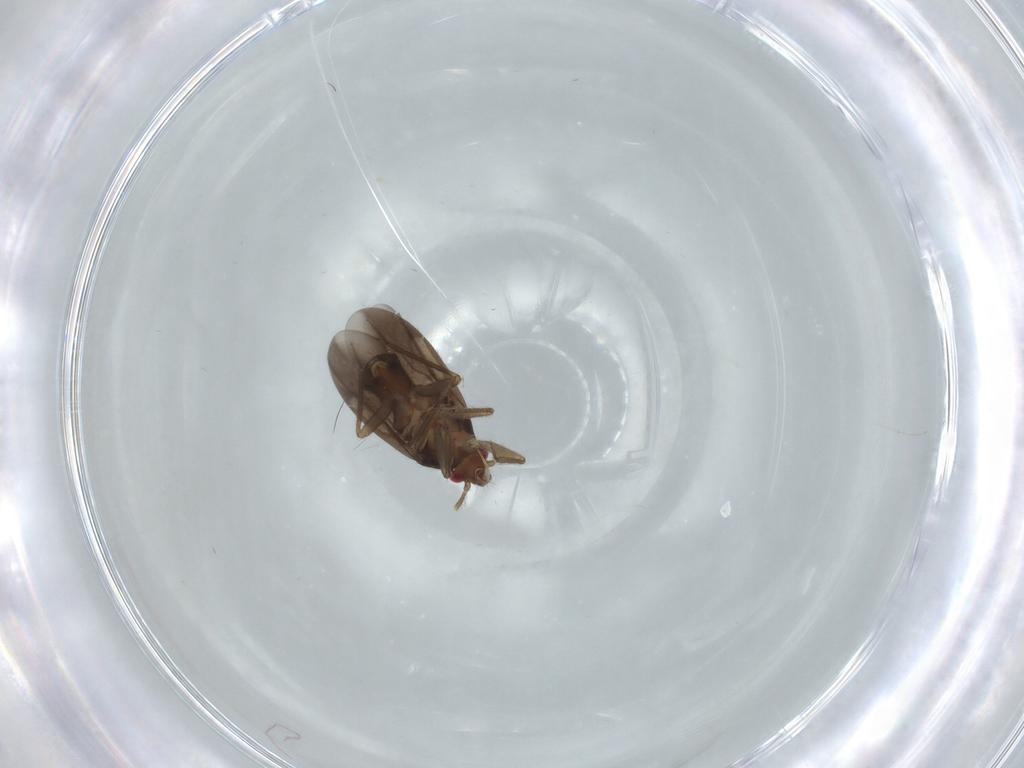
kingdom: Animalia
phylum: Arthropoda
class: Insecta
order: Hemiptera
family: Ceratocombidae
